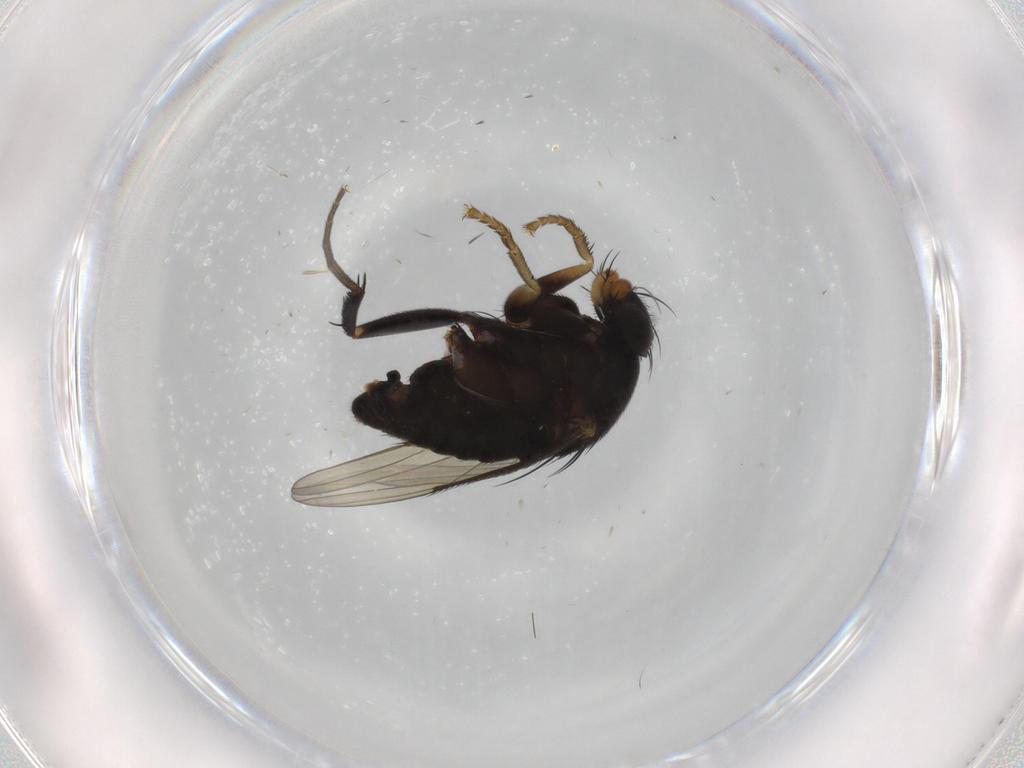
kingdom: Animalia
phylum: Arthropoda
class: Insecta
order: Diptera
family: Phoridae
